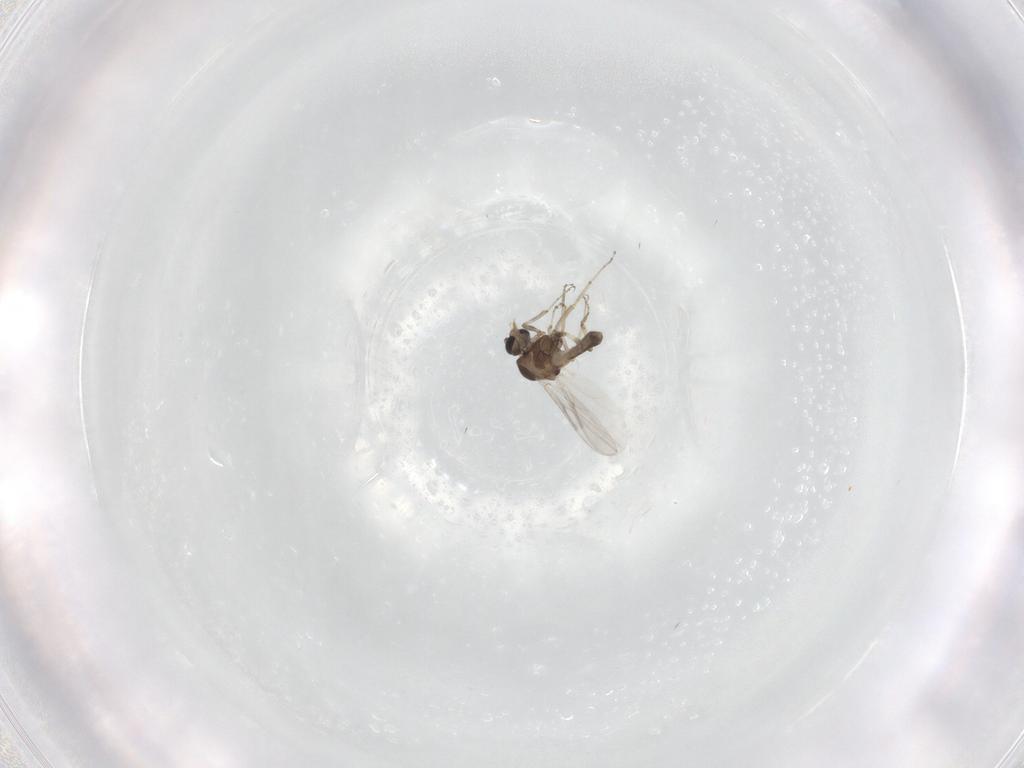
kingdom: Animalia
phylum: Arthropoda
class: Insecta
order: Diptera
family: Ceratopogonidae
